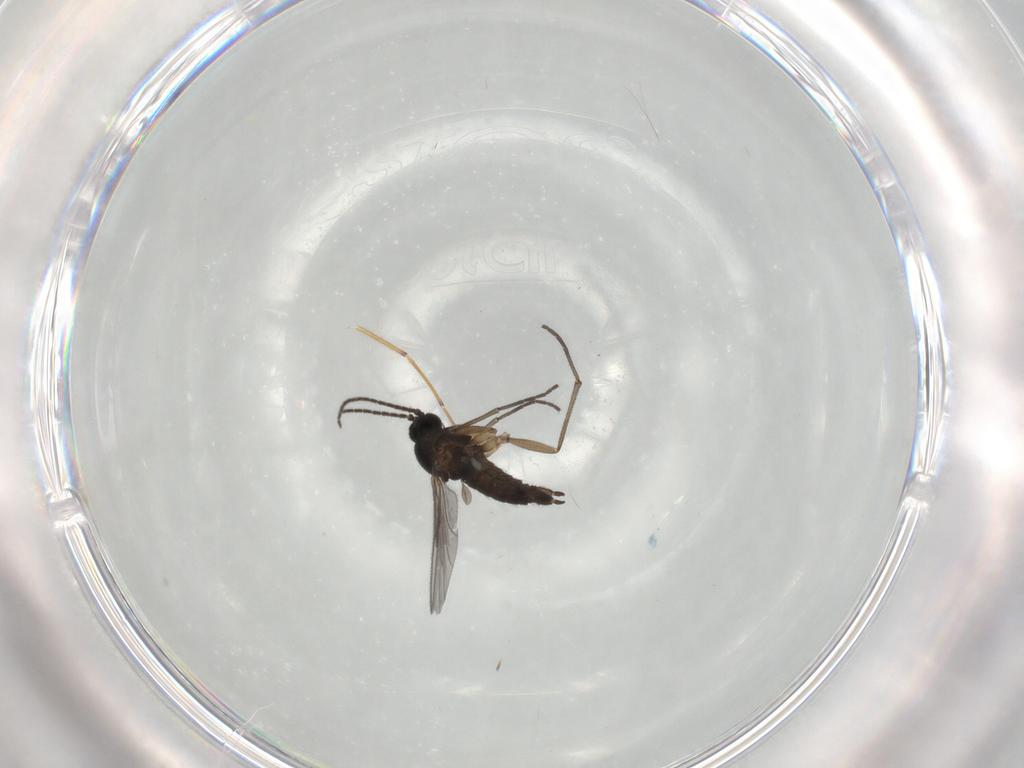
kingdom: Animalia
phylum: Arthropoda
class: Insecta
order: Diptera
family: Sciaridae
